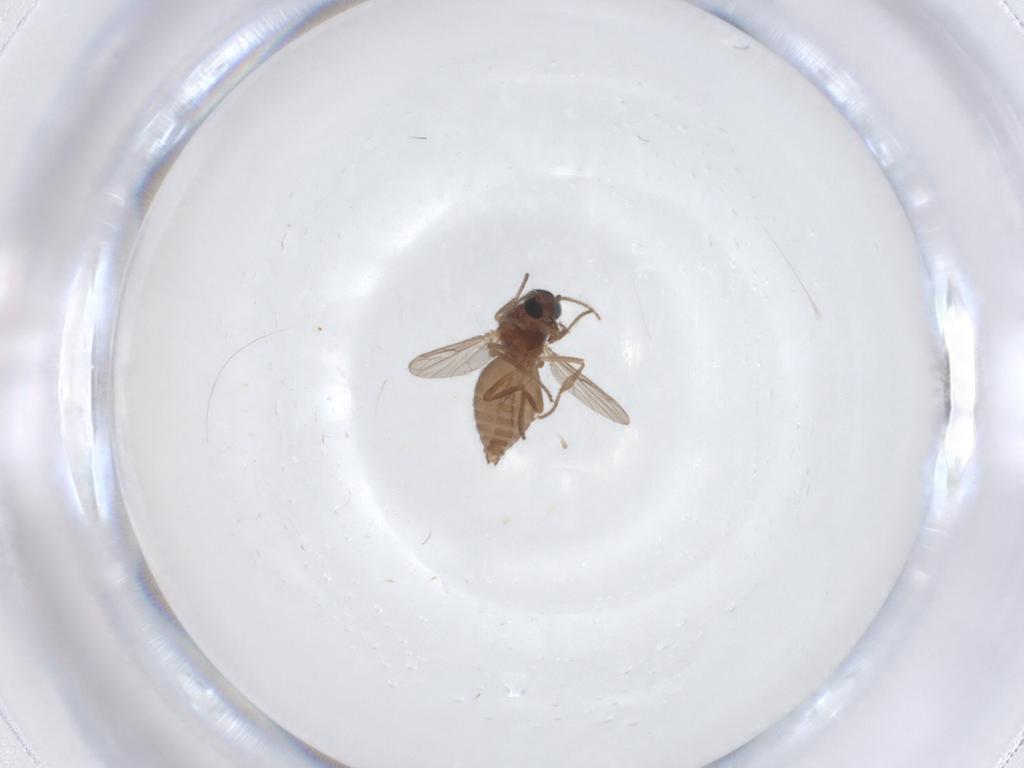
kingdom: Animalia
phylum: Arthropoda
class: Insecta
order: Diptera
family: Ceratopogonidae
